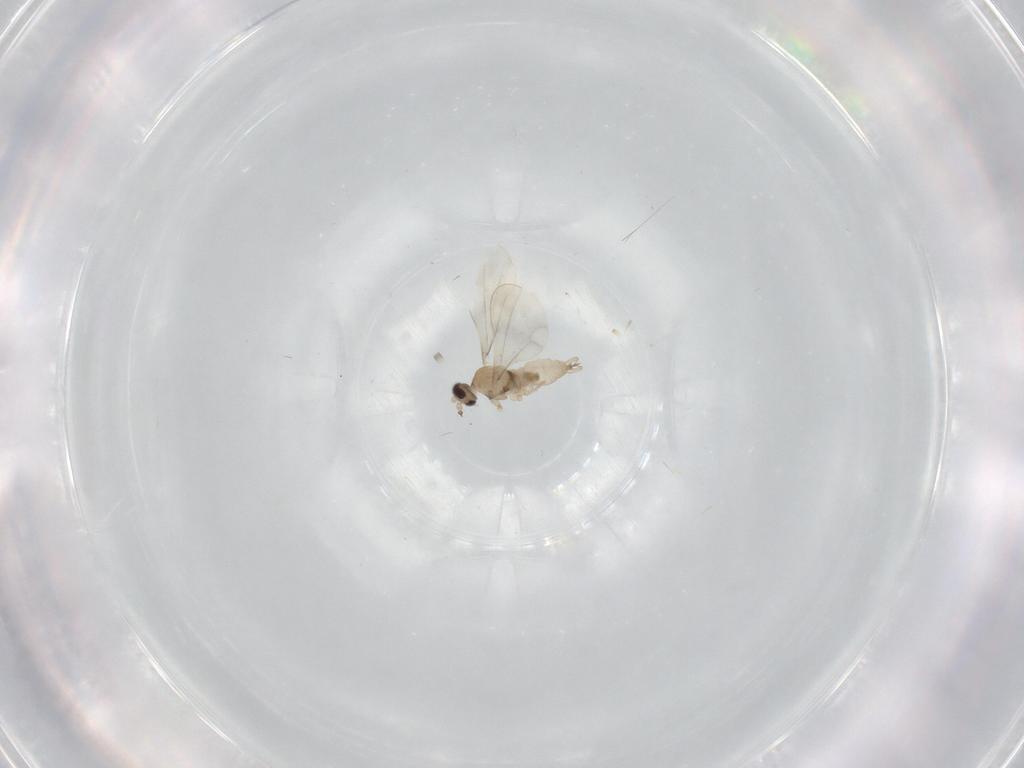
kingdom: Animalia
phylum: Arthropoda
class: Insecta
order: Diptera
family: Cecidomyiidae
